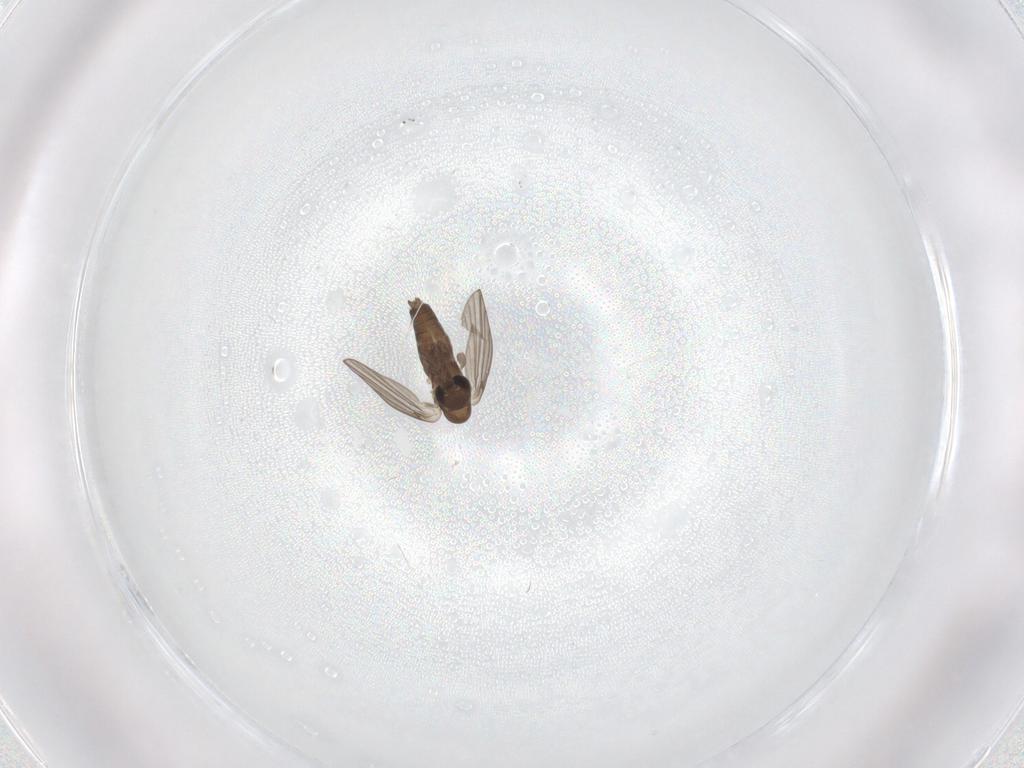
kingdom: Animalia
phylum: Arthropoda
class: Insecta
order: Diptera
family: Cecidomyiidae
